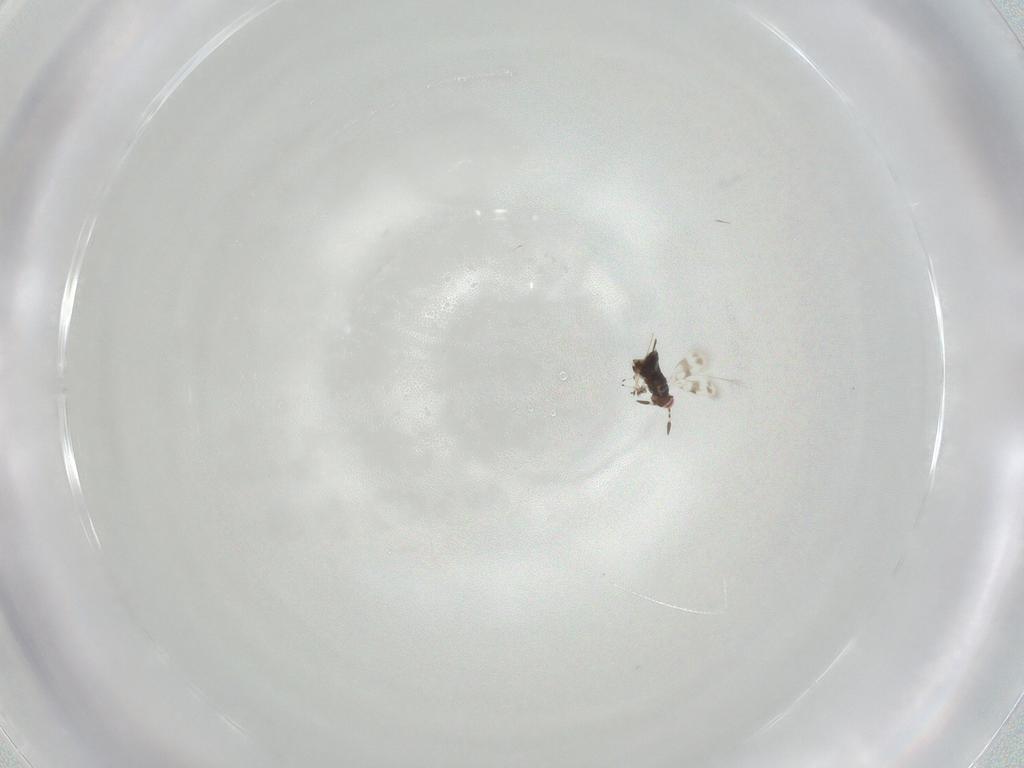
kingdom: Animalia
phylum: Arthropoda
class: Insecta
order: Hymenoptera
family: Azotidae
